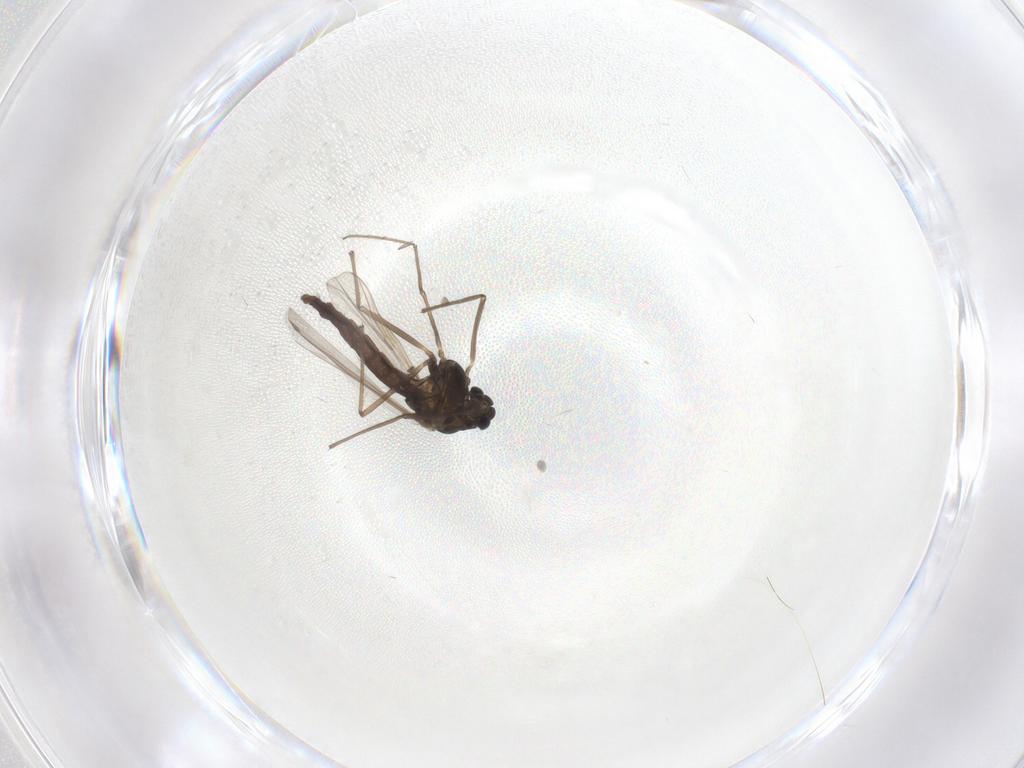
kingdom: Animalia
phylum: Arthropoda
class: Insecta
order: Diptera
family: Chironomidae
